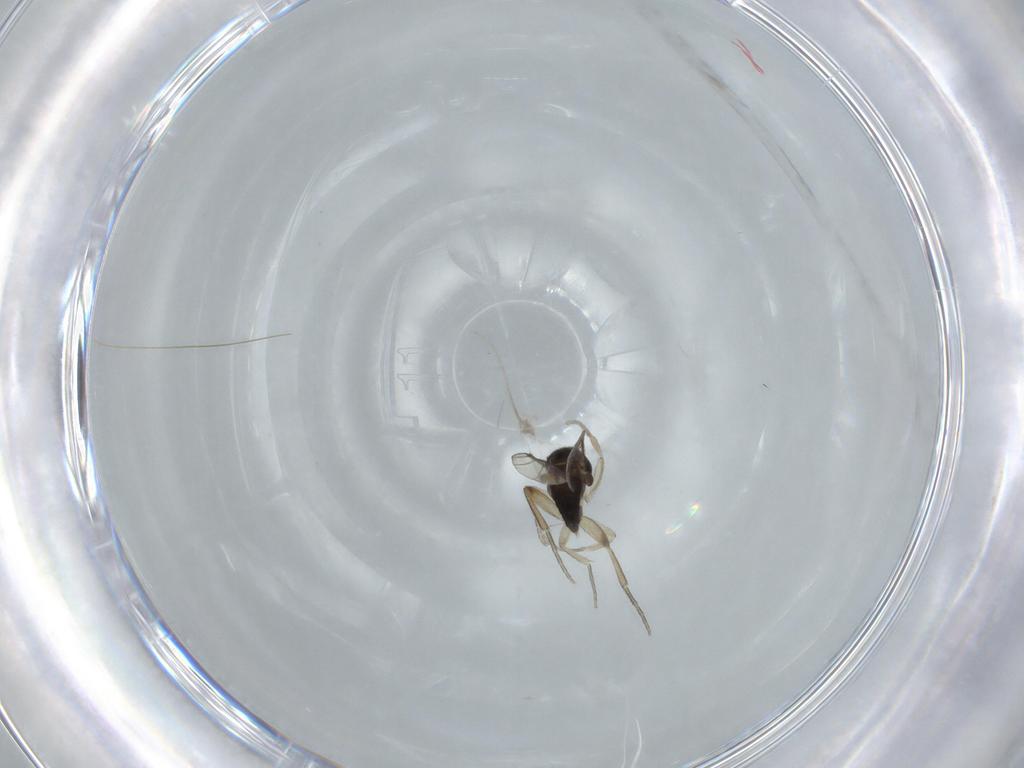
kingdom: Animalia
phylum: Arthropoda
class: Insecta
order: Diptera
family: Phoridae
